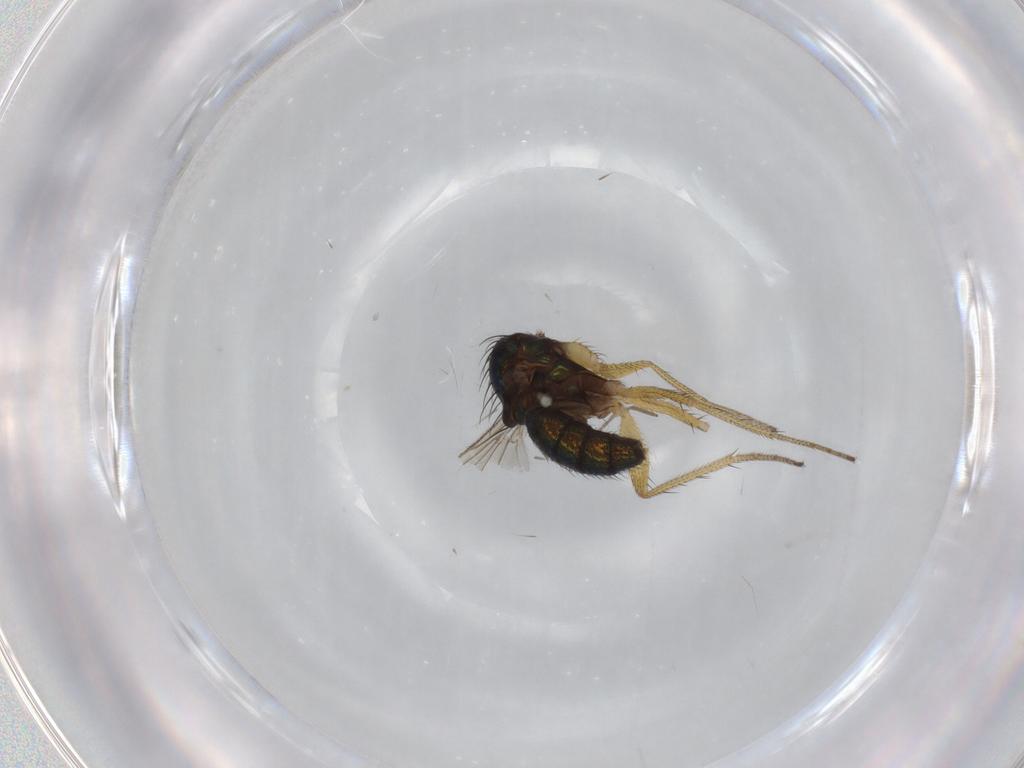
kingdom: Animalia
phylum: Arthropoda
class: Insecta
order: Diptera
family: Dolichopodidae
